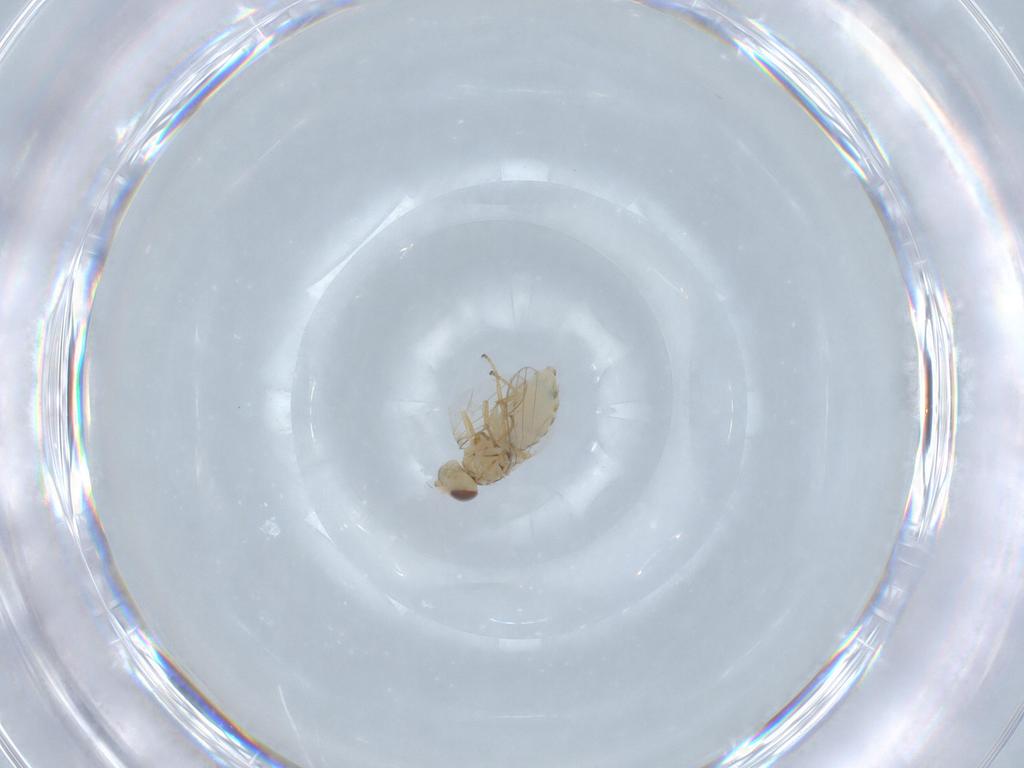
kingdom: Animalia
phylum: Arthropoda
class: Insecta
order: Diptera
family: Chyromyidae
